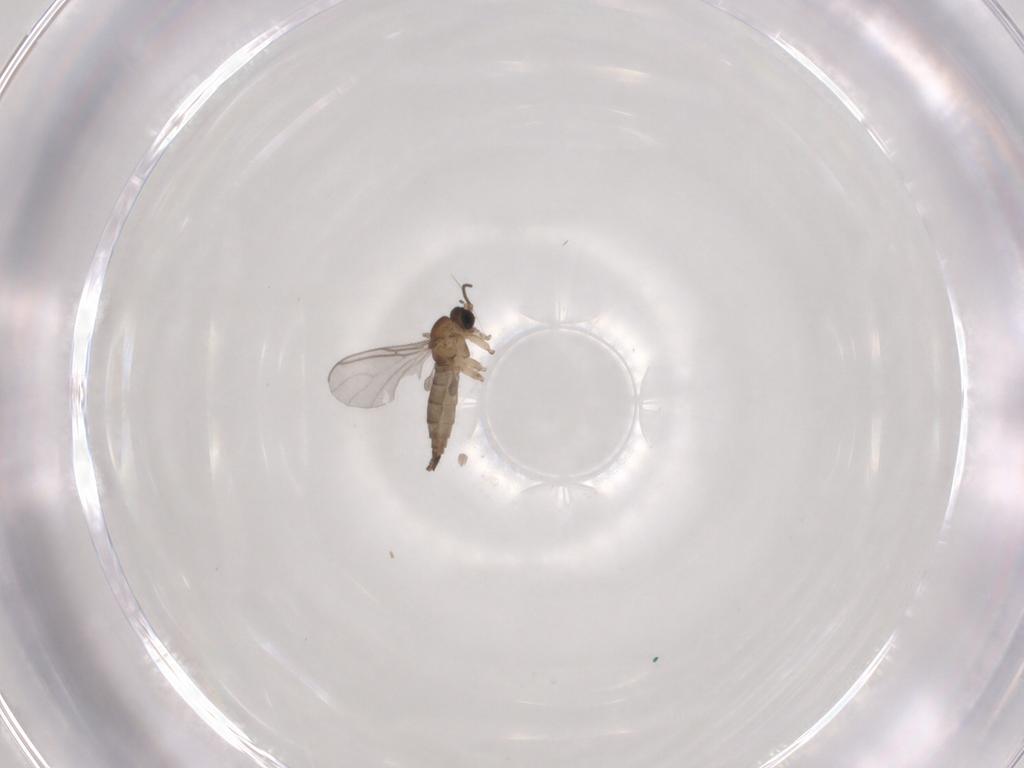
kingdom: Animalia
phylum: Arthropoda
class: Insecta
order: Diptera
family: Sciaridae
